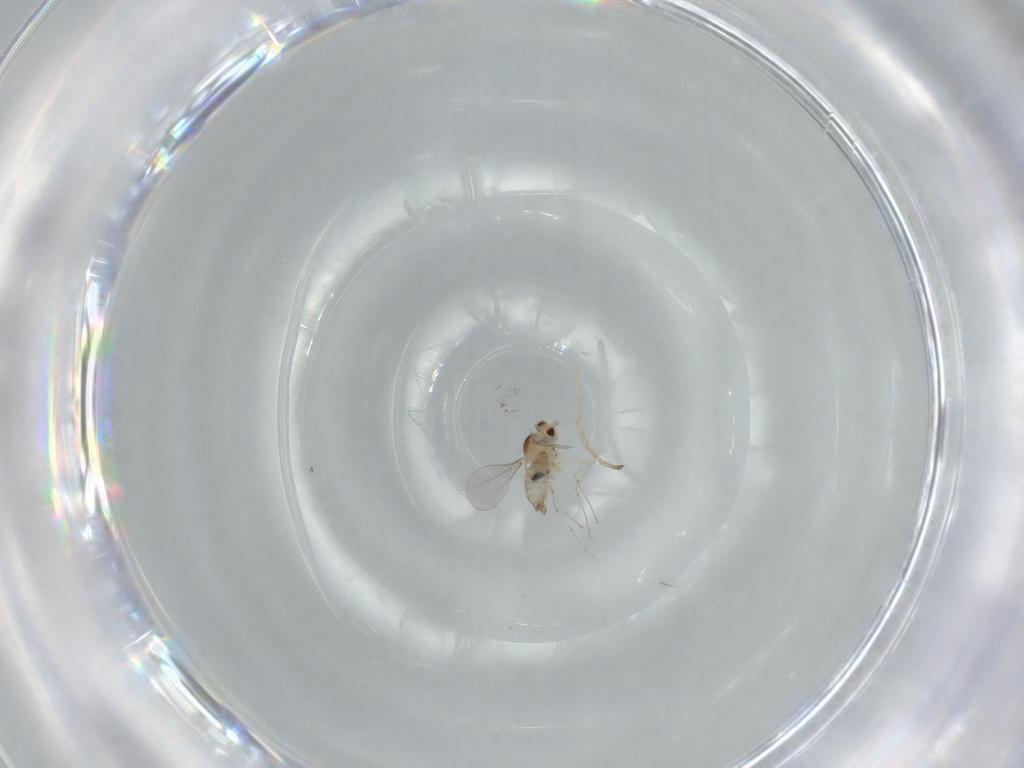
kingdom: Animalia
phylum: Arthropoda
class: Insecta
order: Diptera
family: Cecidomyiidae
